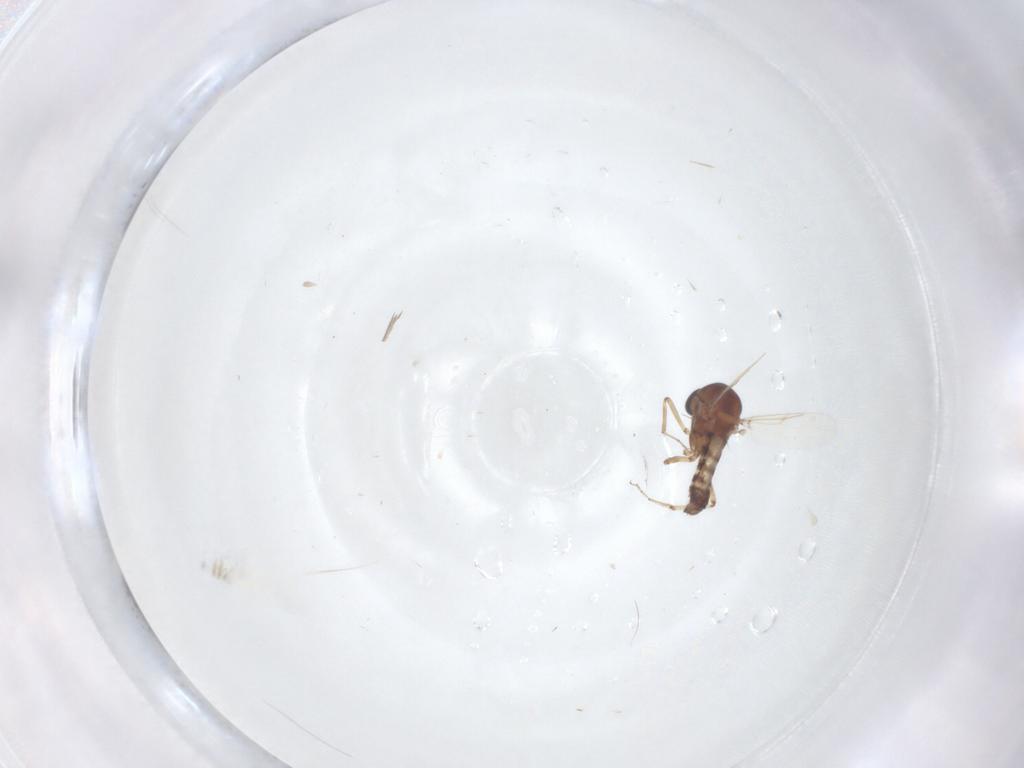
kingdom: Animalia
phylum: Arthropoda
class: Insecta
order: Diptera
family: Ceratopogonidae
